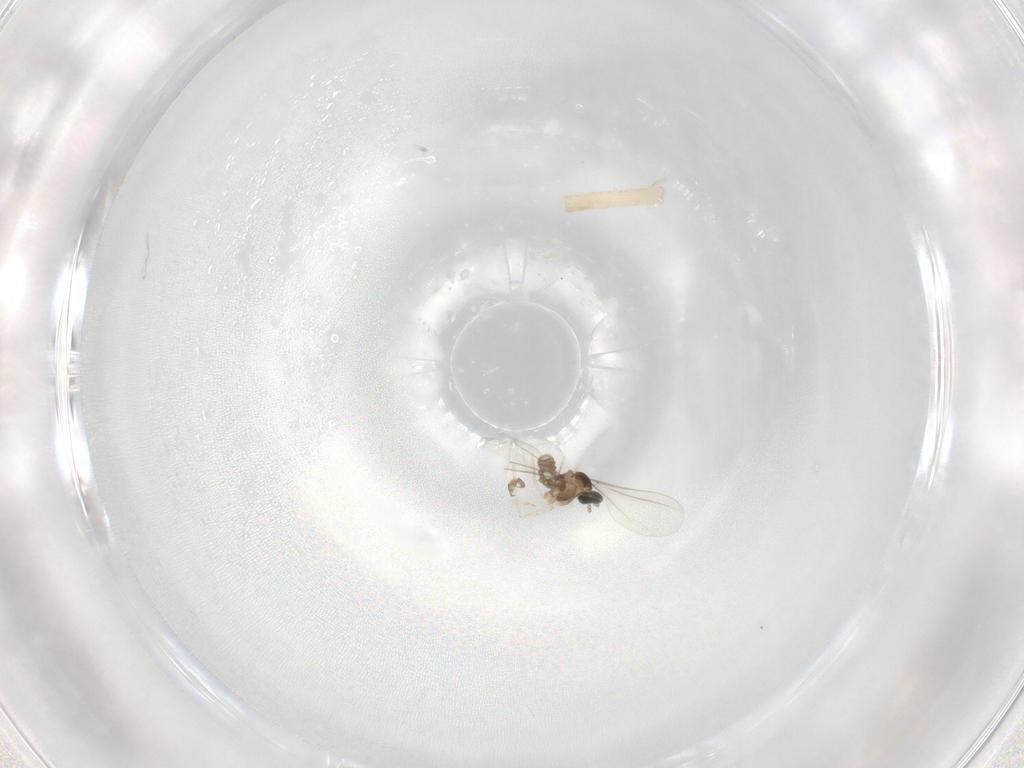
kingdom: Animalia
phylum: Arthropoda
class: Insecta
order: Diptera
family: Cecidomyiidae
